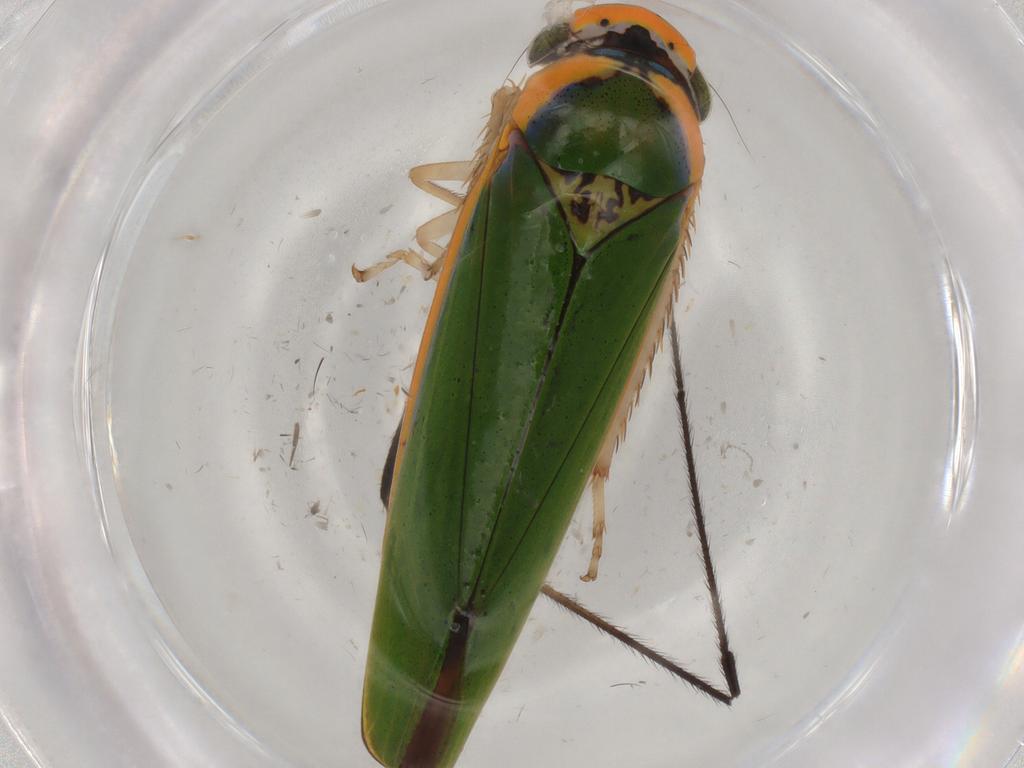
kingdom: Animalia
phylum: Arthropoda
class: Insecta
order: Hemiptera
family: Cicadellidae
